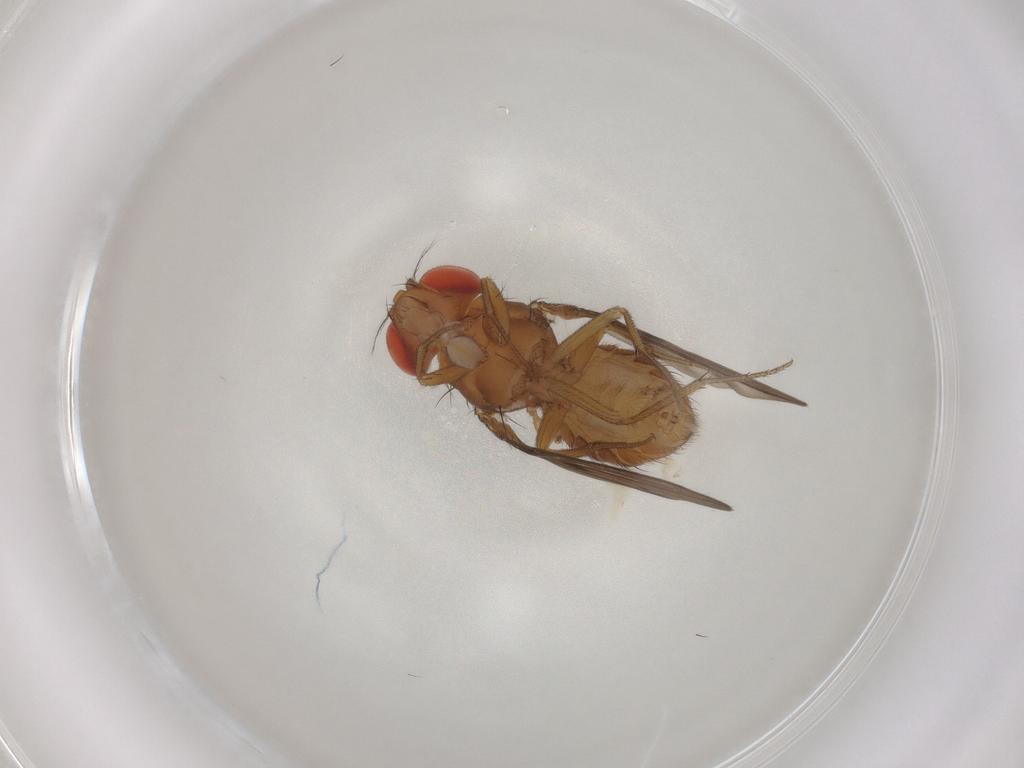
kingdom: Animalia
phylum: Arthropoda
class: Insecta
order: Diptera
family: Drosophilidae
